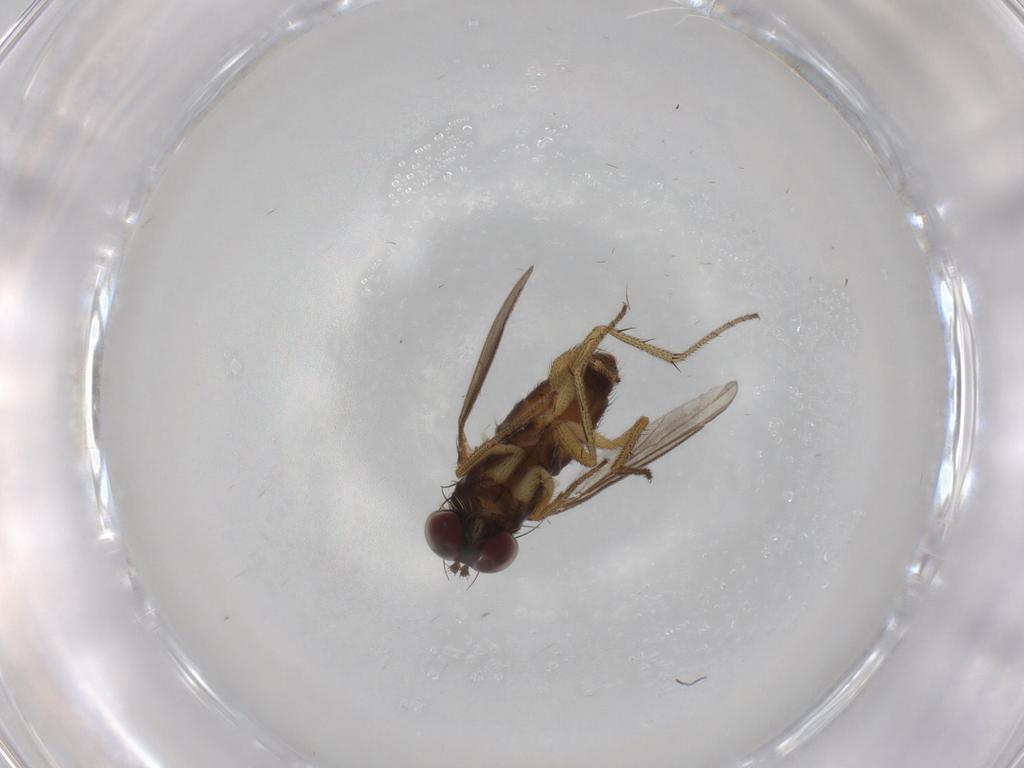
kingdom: Animalia
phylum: Arthropoda
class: Insecta
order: Diptera
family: Dolichopodidae
